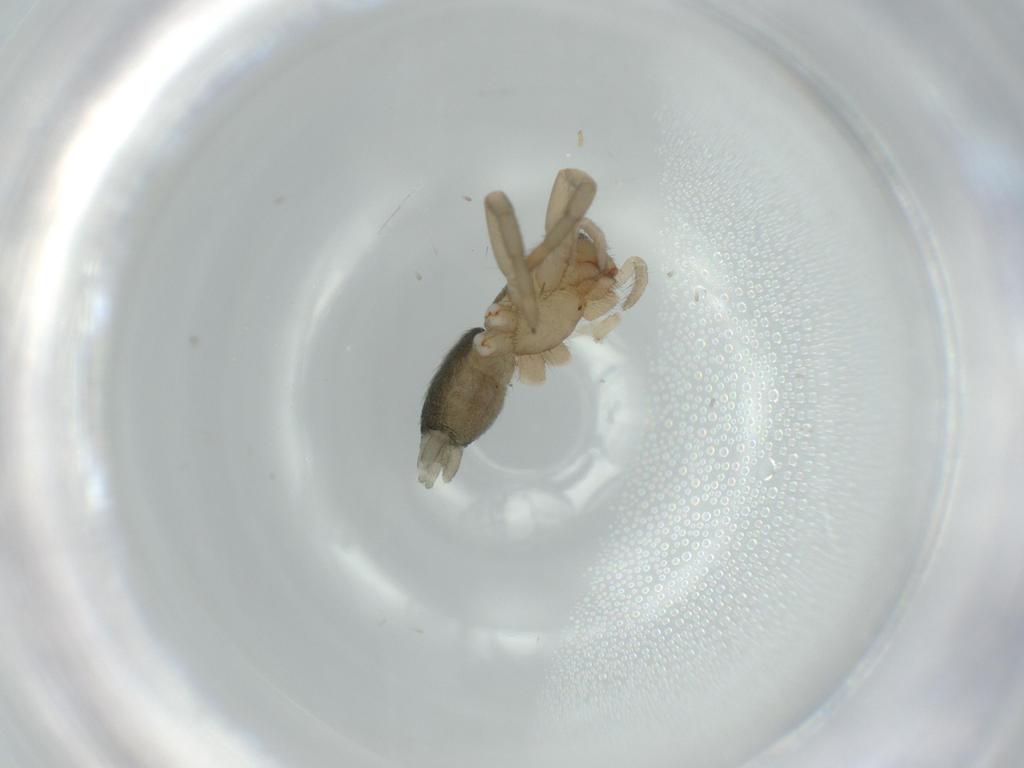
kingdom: Animalia
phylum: Arthropoda
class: Arachnida
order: Araneae
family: Gnaphosidae
